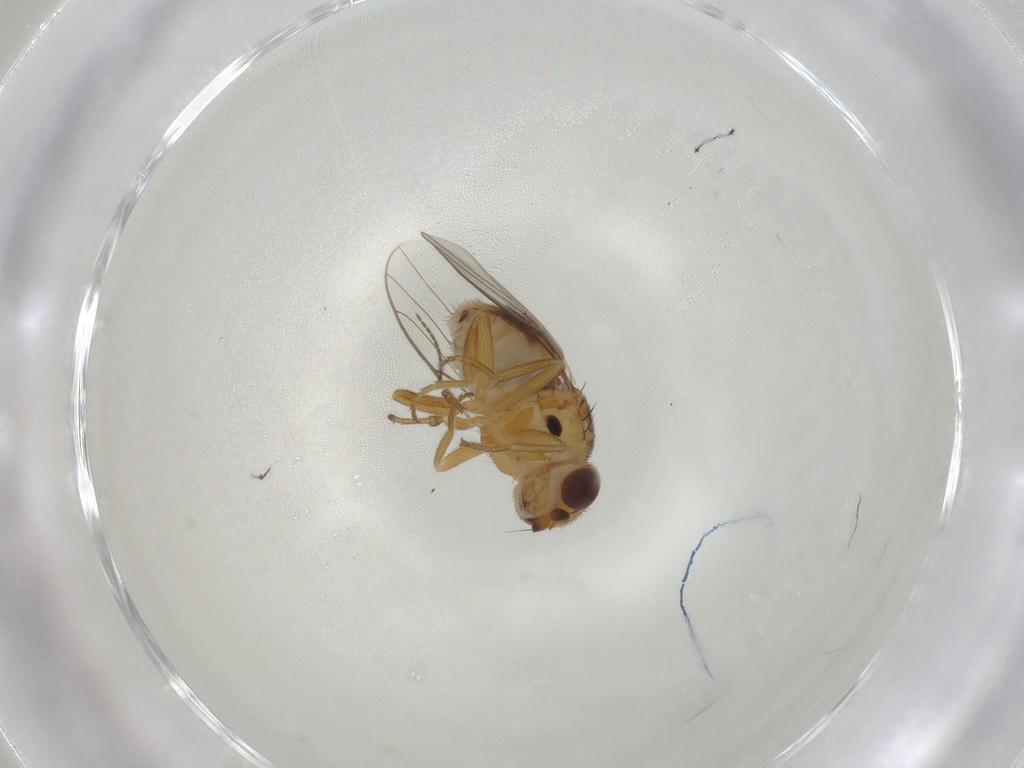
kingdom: Animalia
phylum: Arthropoda
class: Insecta
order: Diptera
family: Chloropidae
